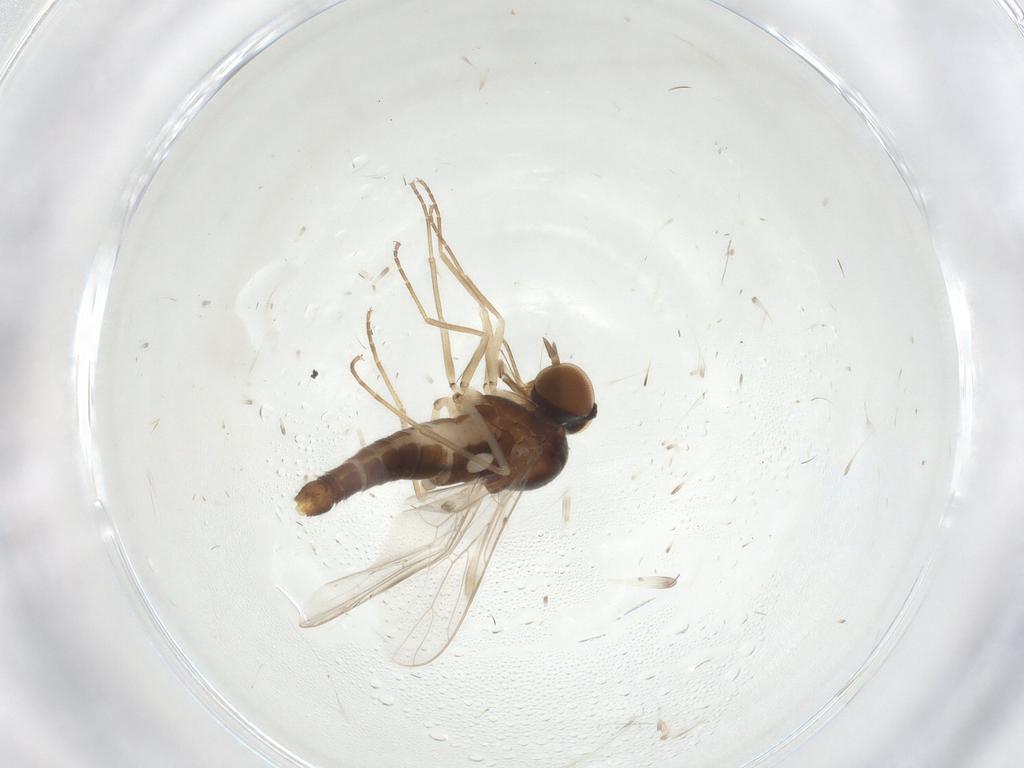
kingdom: Animalia
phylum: Arthropoda
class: Insecta
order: Diptera
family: Scenopinidae
